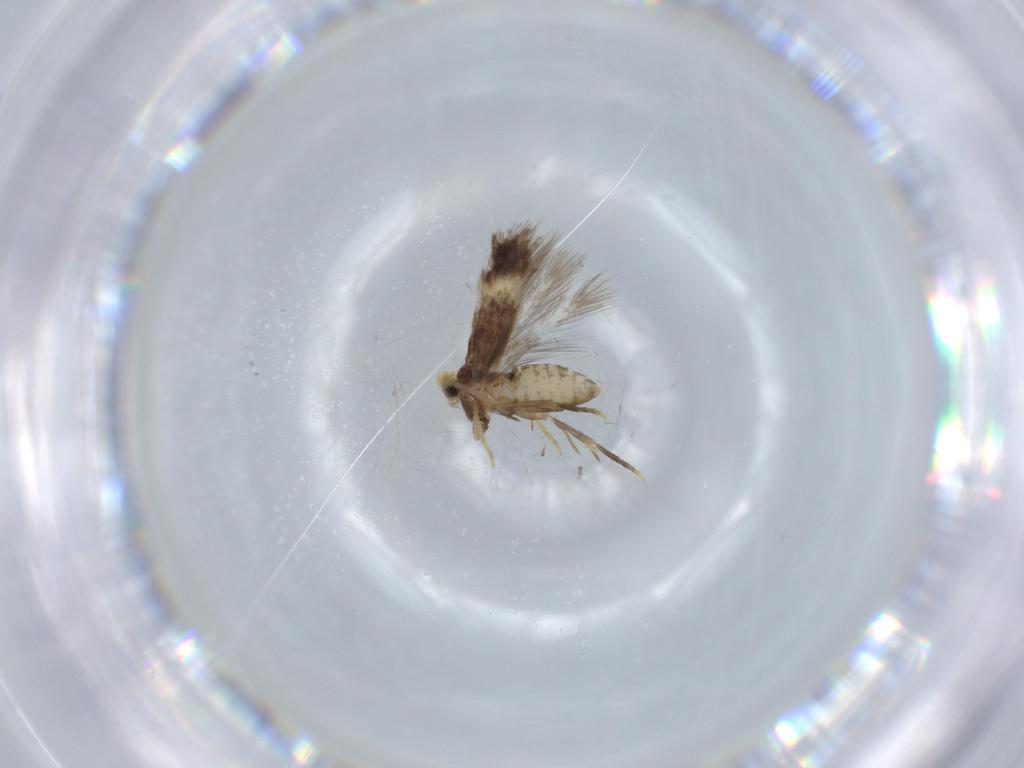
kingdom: Animalia
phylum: Arthropoda
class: Insecta
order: Lepidoptera
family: Nepticulidae
